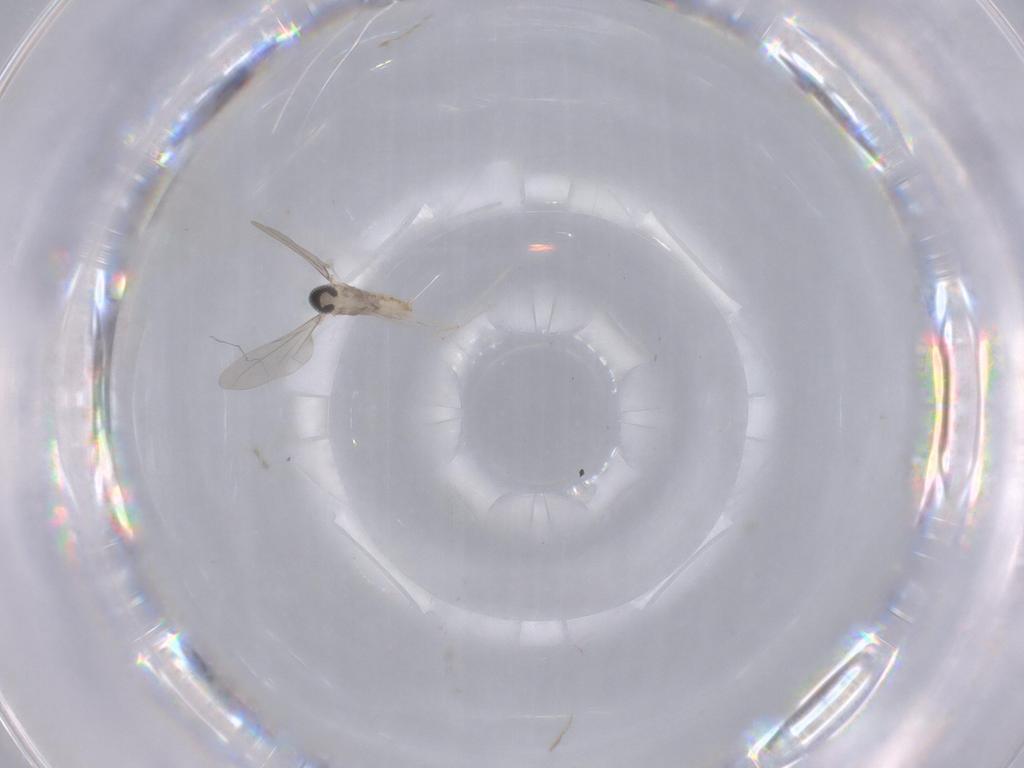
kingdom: Animalia
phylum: Arthropoda
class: Insecta
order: Diptera
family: Cecidomyiidae
